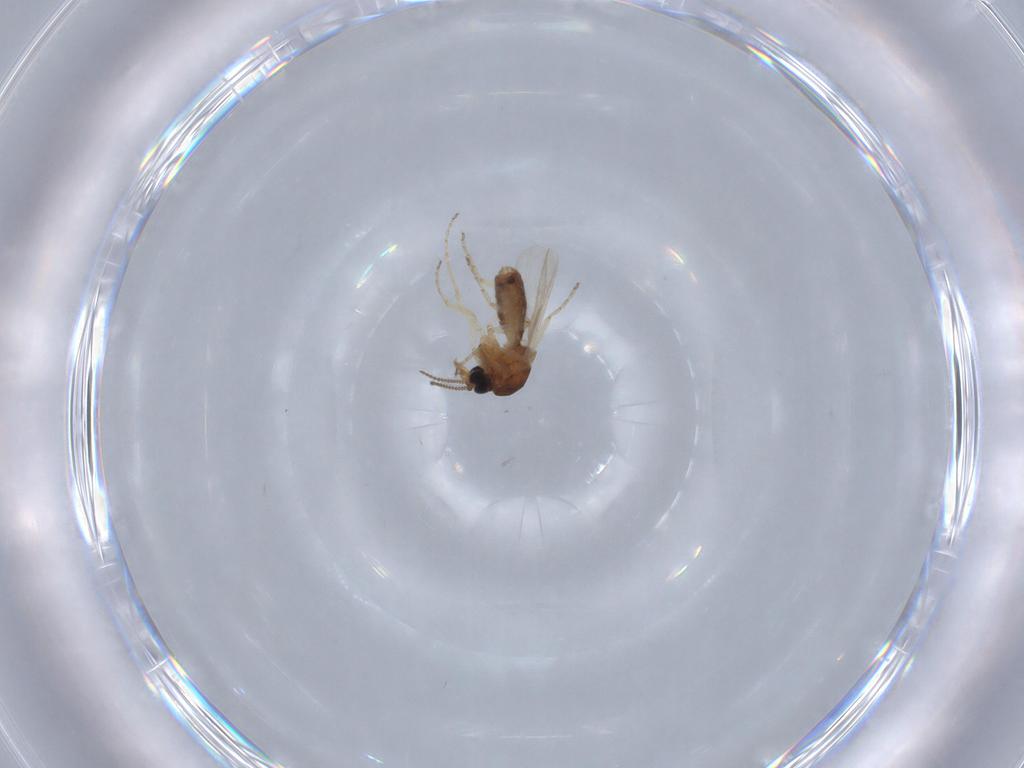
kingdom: Animalia
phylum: Arthropoda
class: Insecta
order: Diptera
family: Ceratopogonidae
